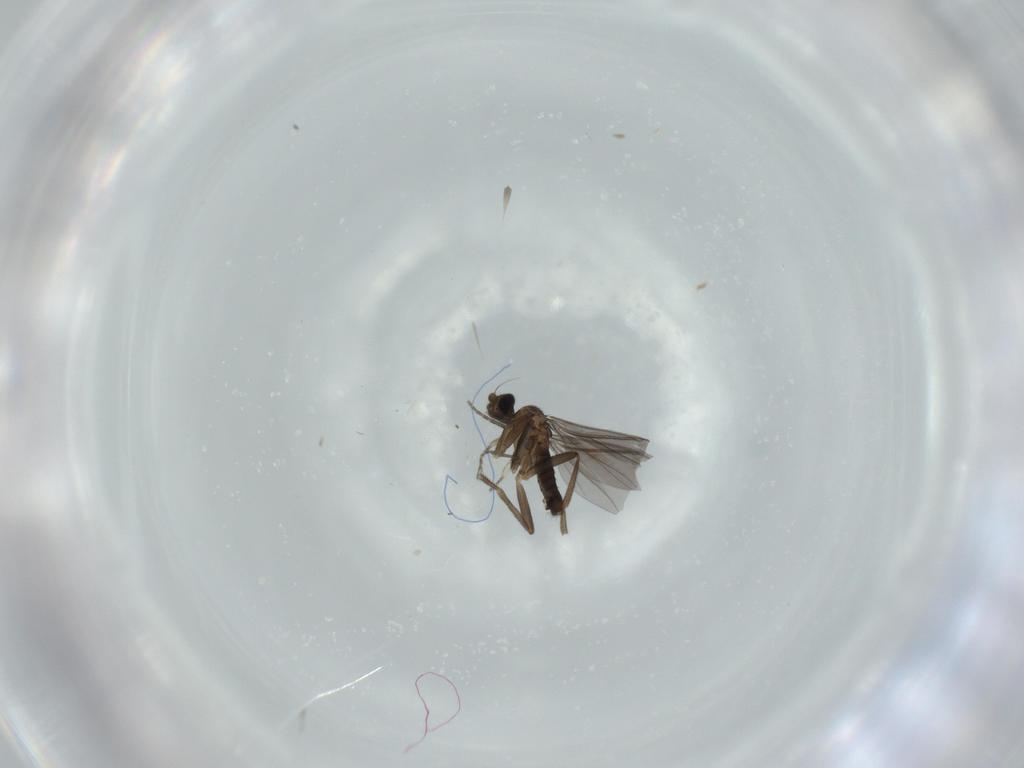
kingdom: Animalia
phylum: Arthropoda
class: Insecta
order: Diptera
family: Phoridae
